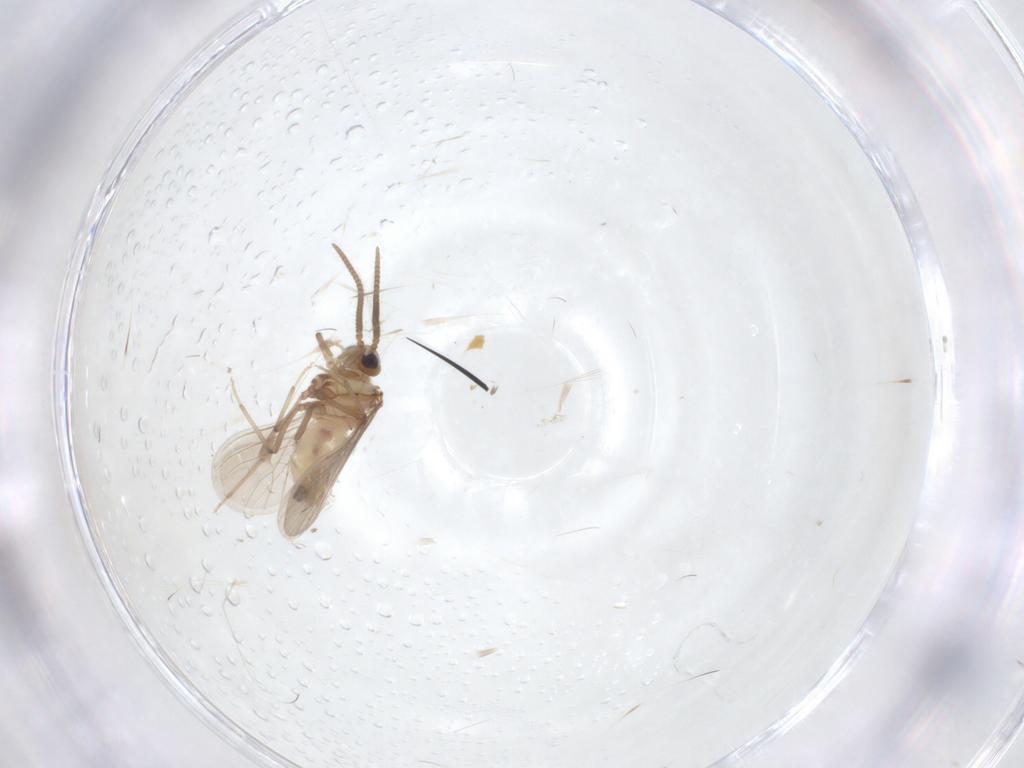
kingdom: Animalia
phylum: Arthropoda
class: Insecta
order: Neuroptera
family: Coniopterygidae
